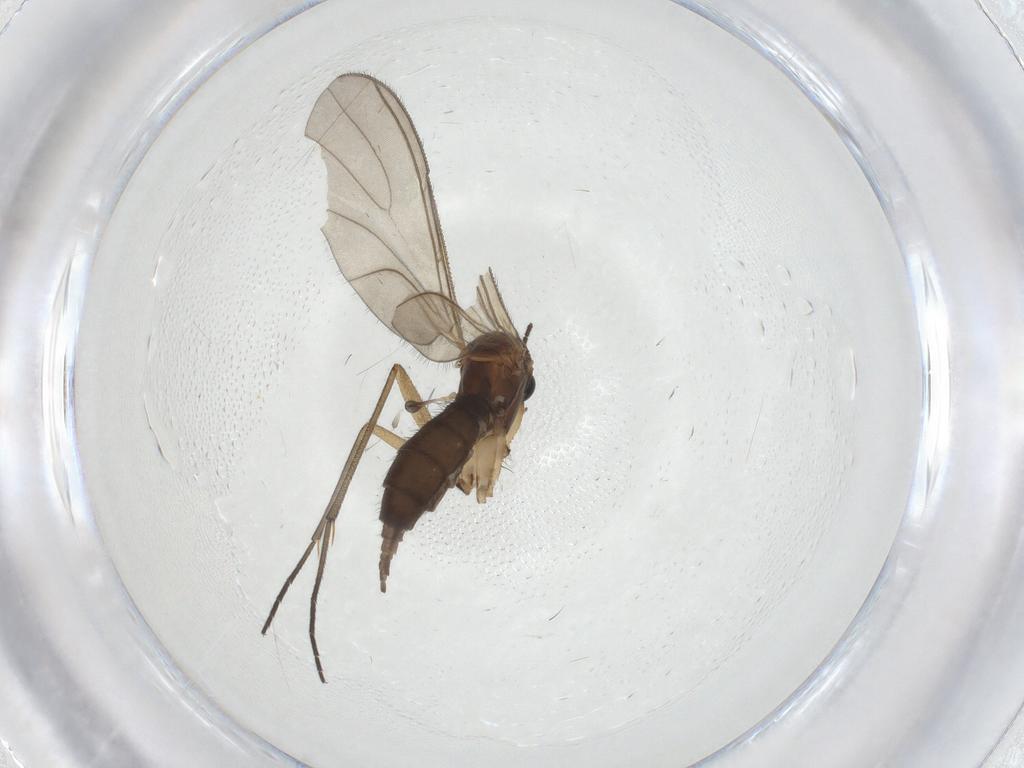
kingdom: Animalia
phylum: Arthropoda
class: Insecta
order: Diptera
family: Sciaridae
